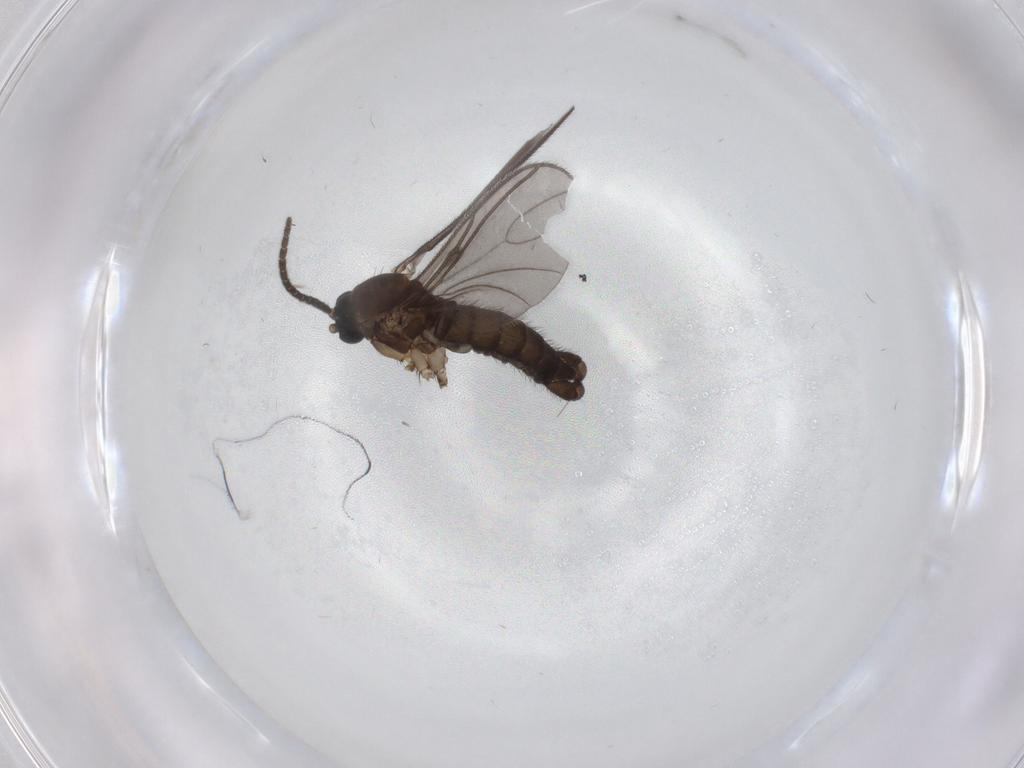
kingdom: Animalia
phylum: Arthropoda
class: Insecta
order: Diptera
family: Sciaridae
